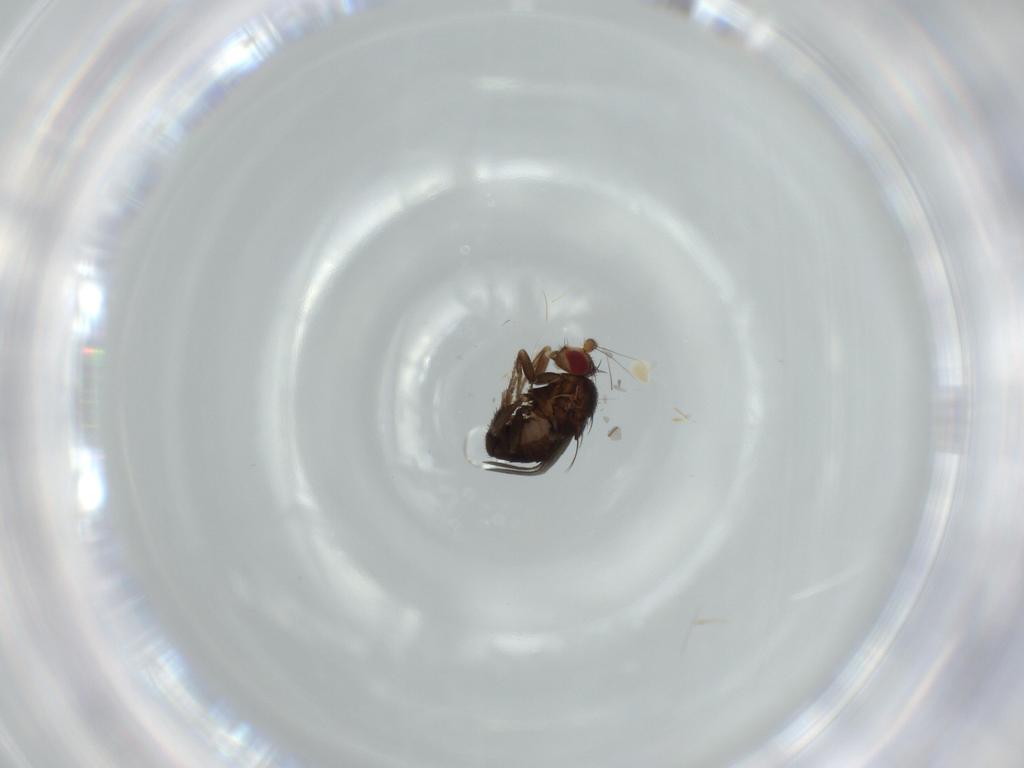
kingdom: Animalia
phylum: Arthropoda
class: Insecta
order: Diptera
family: Sphaeroceridae
